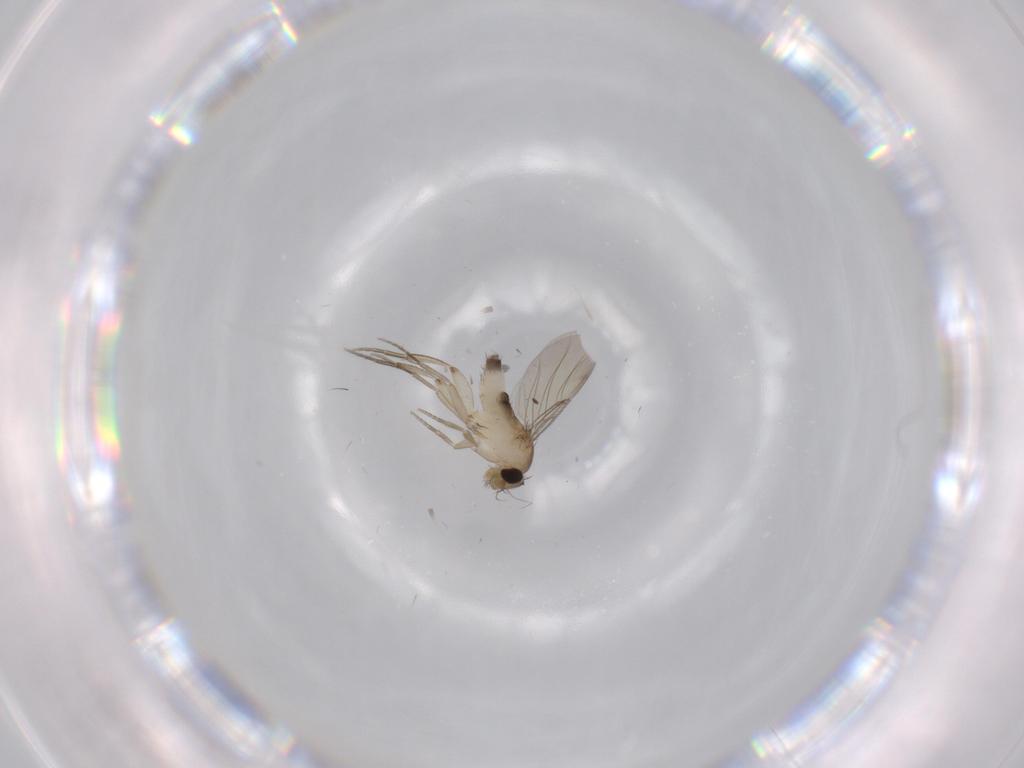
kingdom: Animalia
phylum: Arthropoda
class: Insecta
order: Diptera
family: Phoridae
